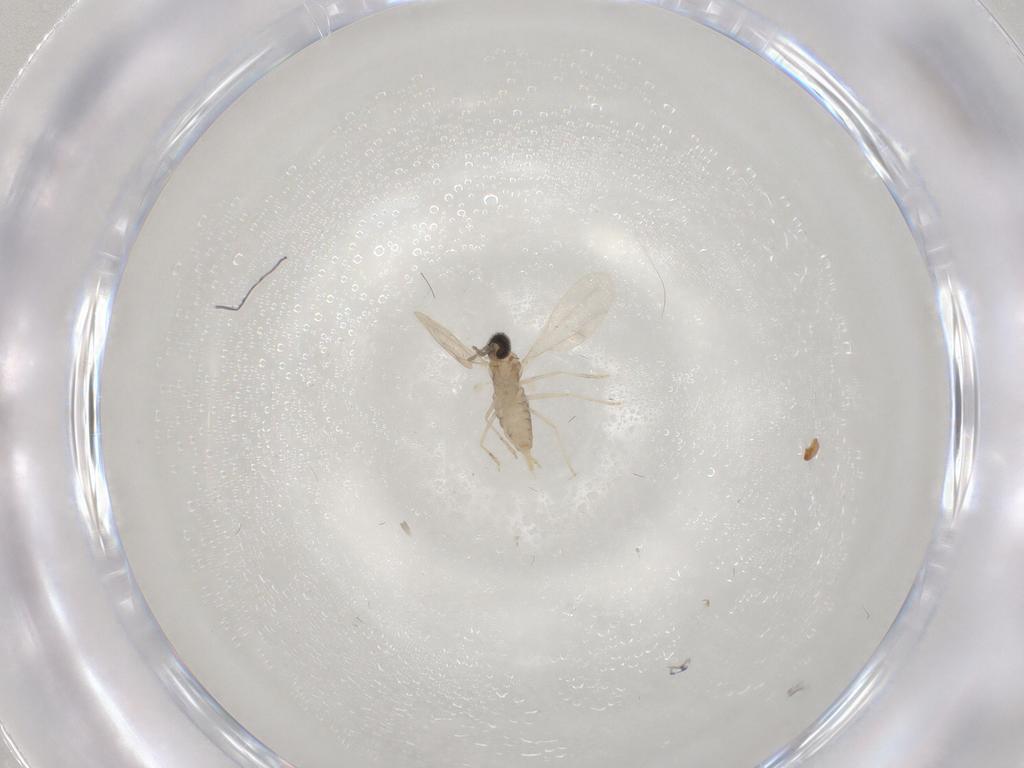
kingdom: Animalia
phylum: Arthropoda
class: Insecta
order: Diptera
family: Cecidomyiidae
